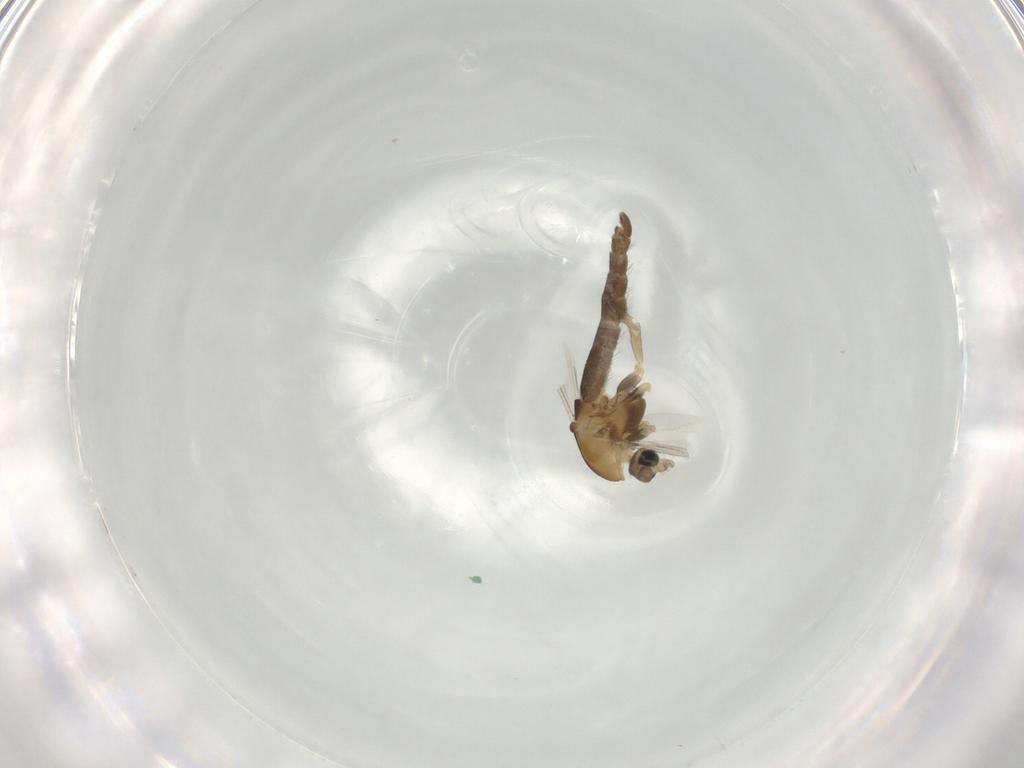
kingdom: Animalia
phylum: Arthropoda
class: Insecta
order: Diptera
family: Chironomidae
